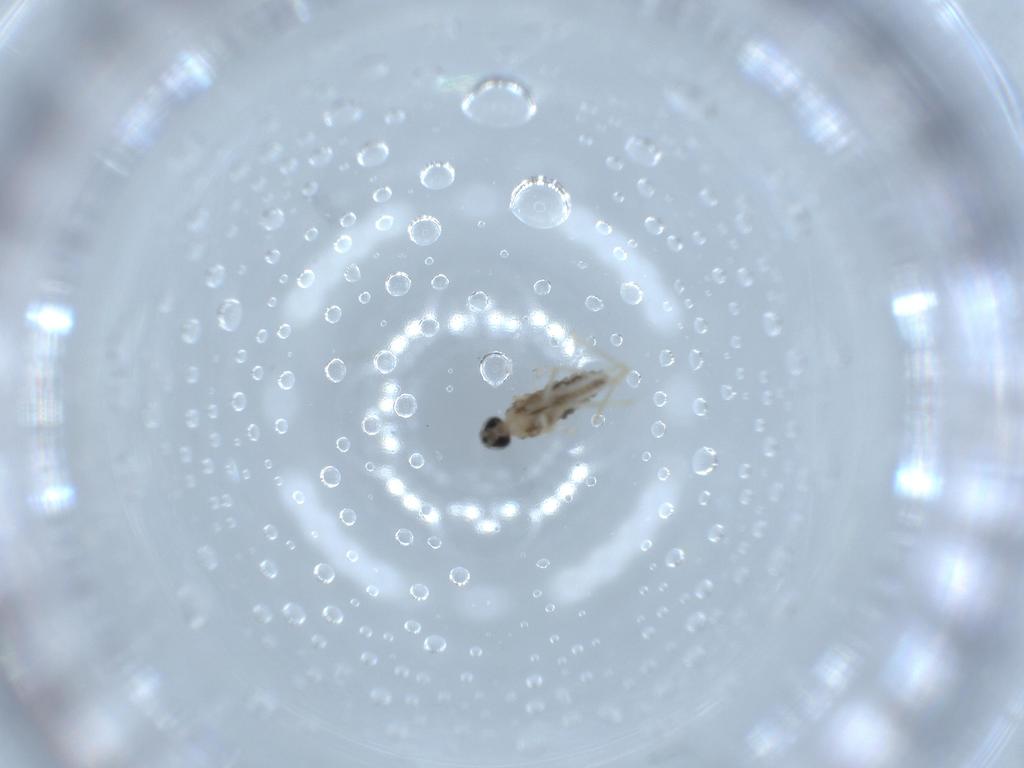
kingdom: Animalia
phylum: Arthropoda
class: Insecta
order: Diptera
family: Cecidomyiidae
